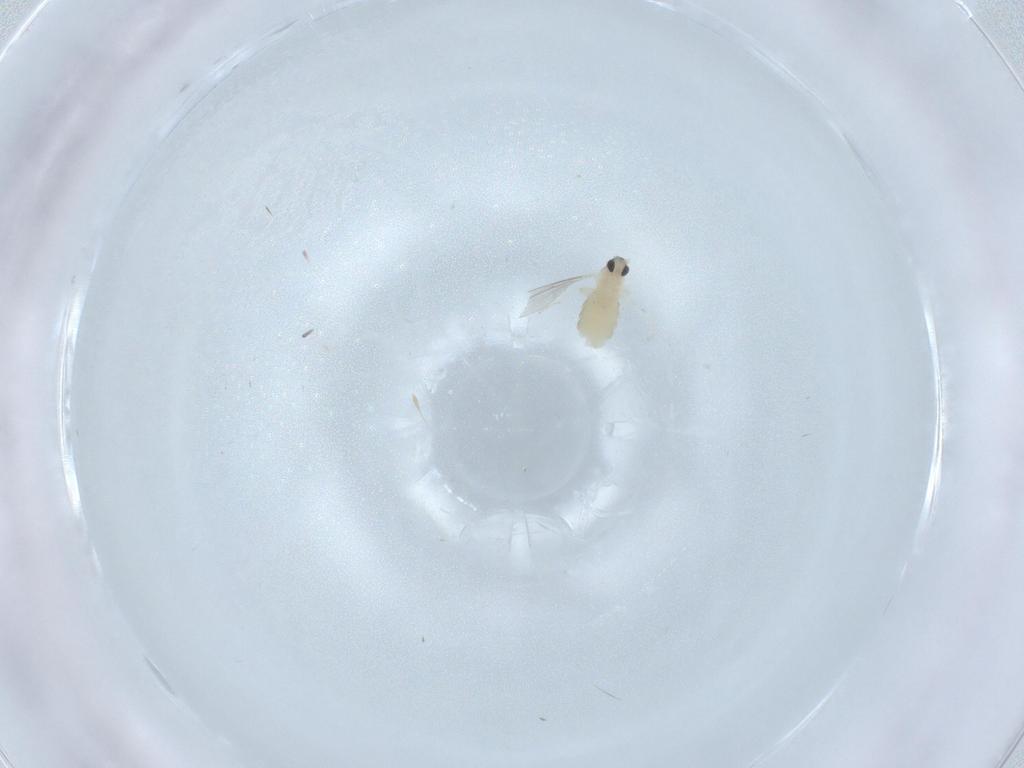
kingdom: Animalia
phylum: Arthropoda
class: Insecta
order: Diptera
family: Cecidomyiidae
